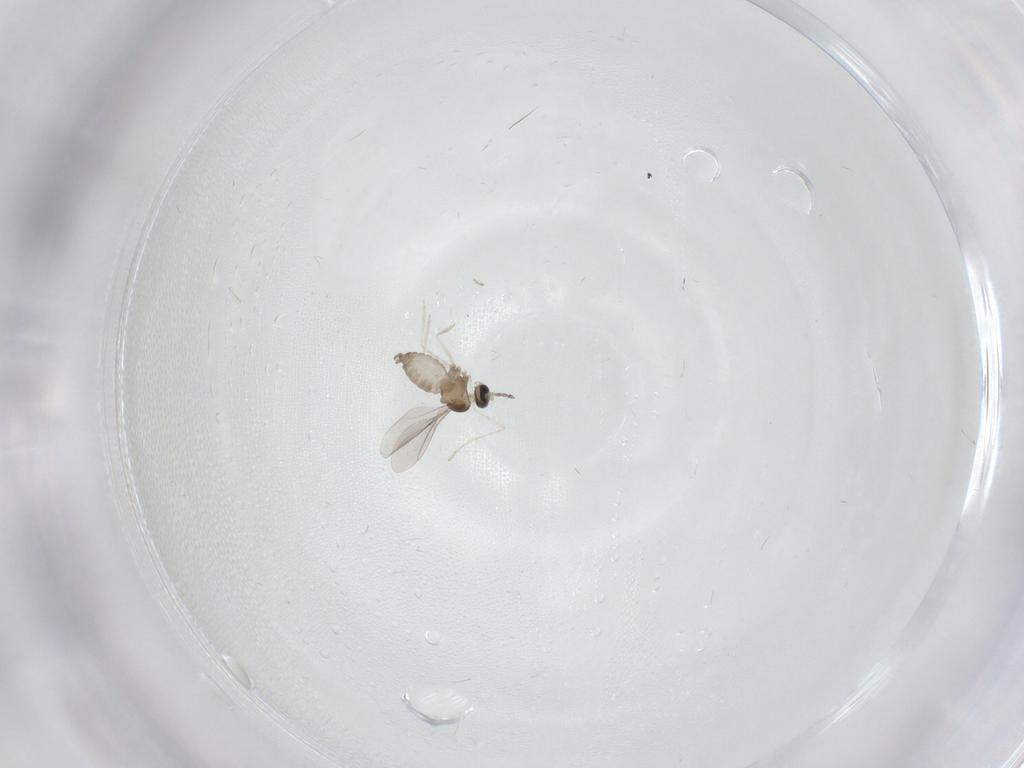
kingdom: Animalia
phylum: Arthropoda
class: Insecta
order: Diptera
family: Cecidomyiidae
